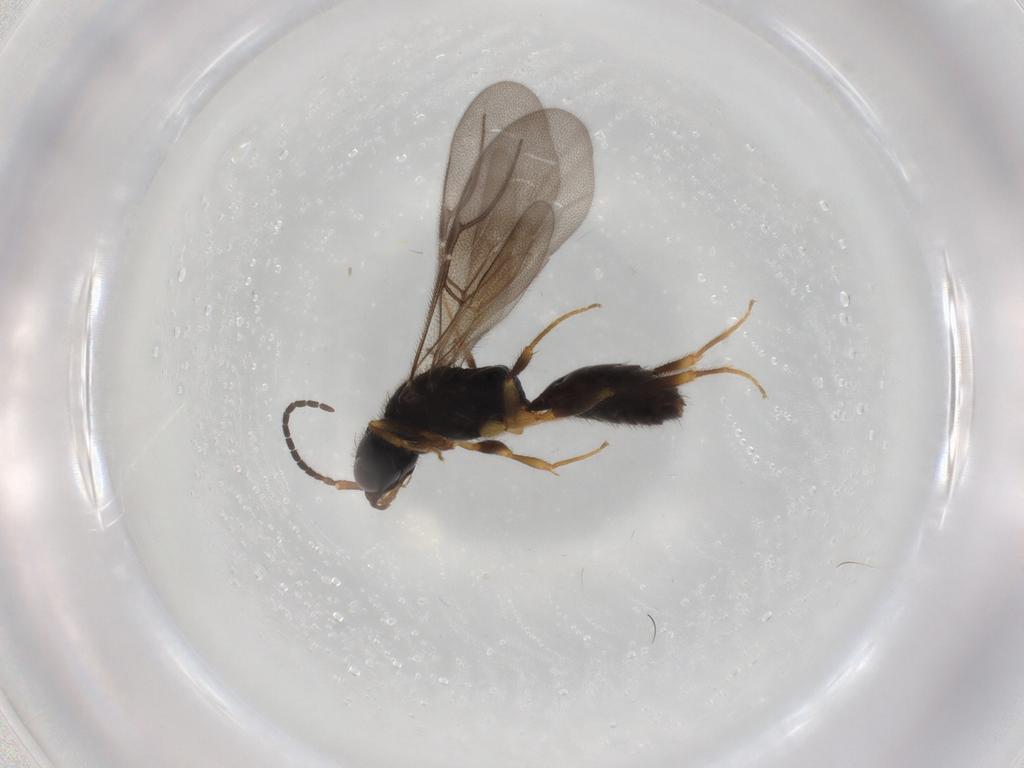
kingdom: Animalia
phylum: Arthropoda
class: Insecta
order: Hymenoptera
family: Bethylidae
